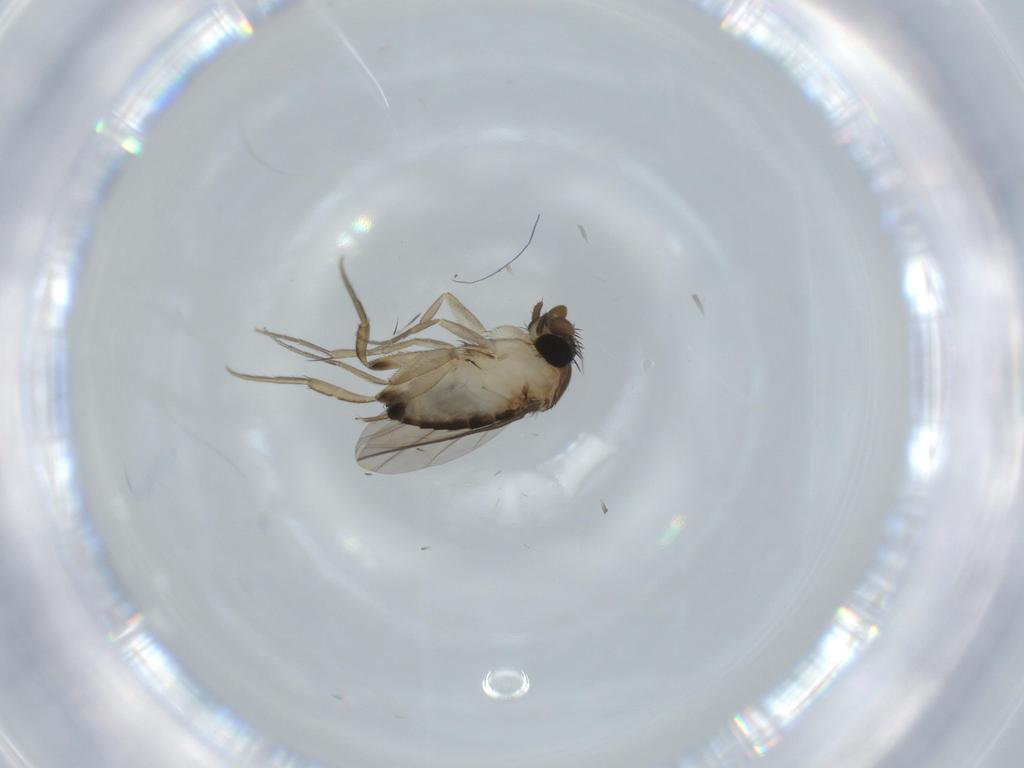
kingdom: Animalia
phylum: Arthropoda
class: Insecta
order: Diptera
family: Phoridae
